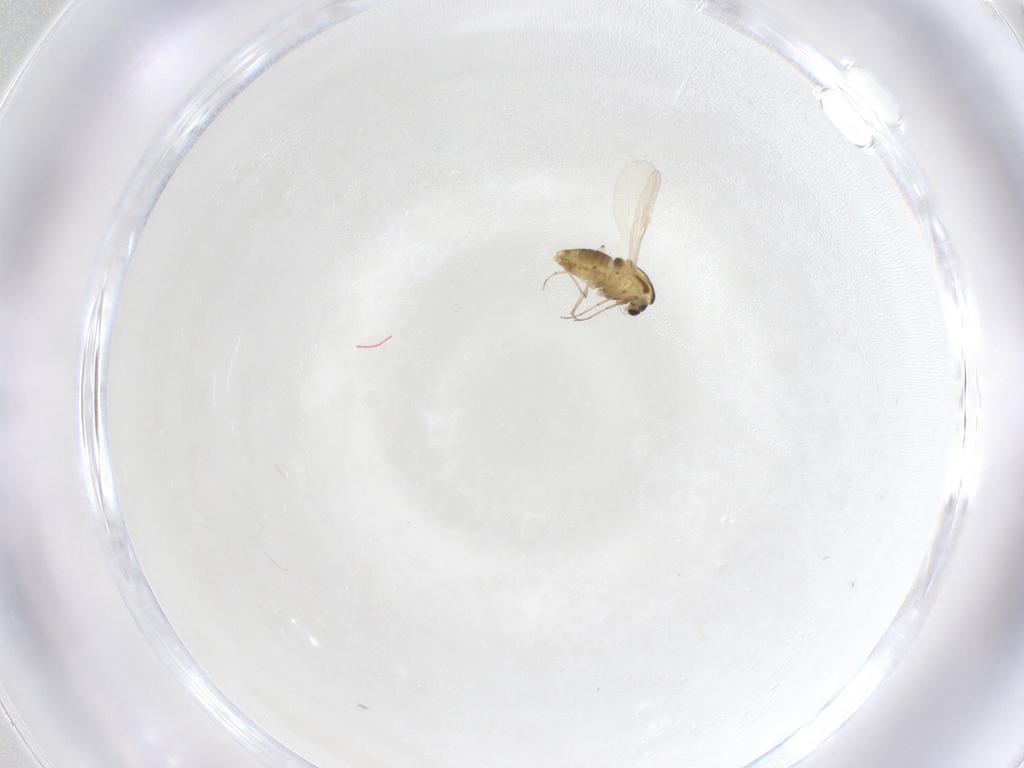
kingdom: Animalia
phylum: Arthropoda
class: Insecta
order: Diptera
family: Chironomidae
